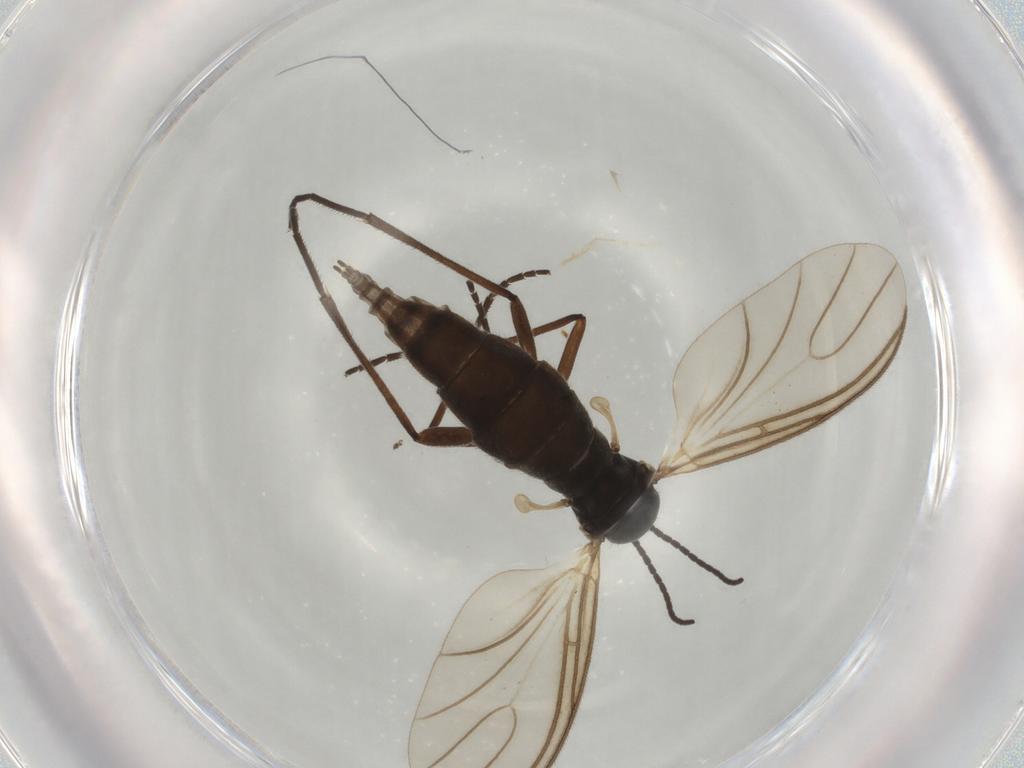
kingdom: Animalia
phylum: Arthropoda
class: Insecta
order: Diptera
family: Sciaridae
